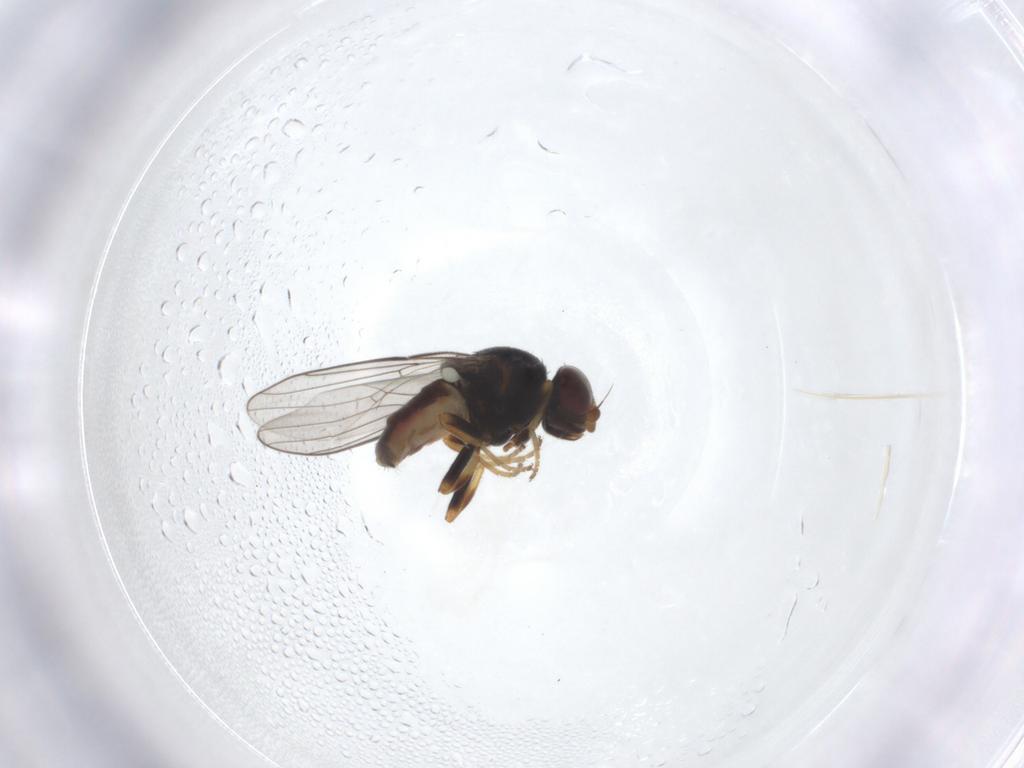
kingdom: Animalia
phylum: Arthropoda
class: Insecta
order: Diptera
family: Chloropidae
